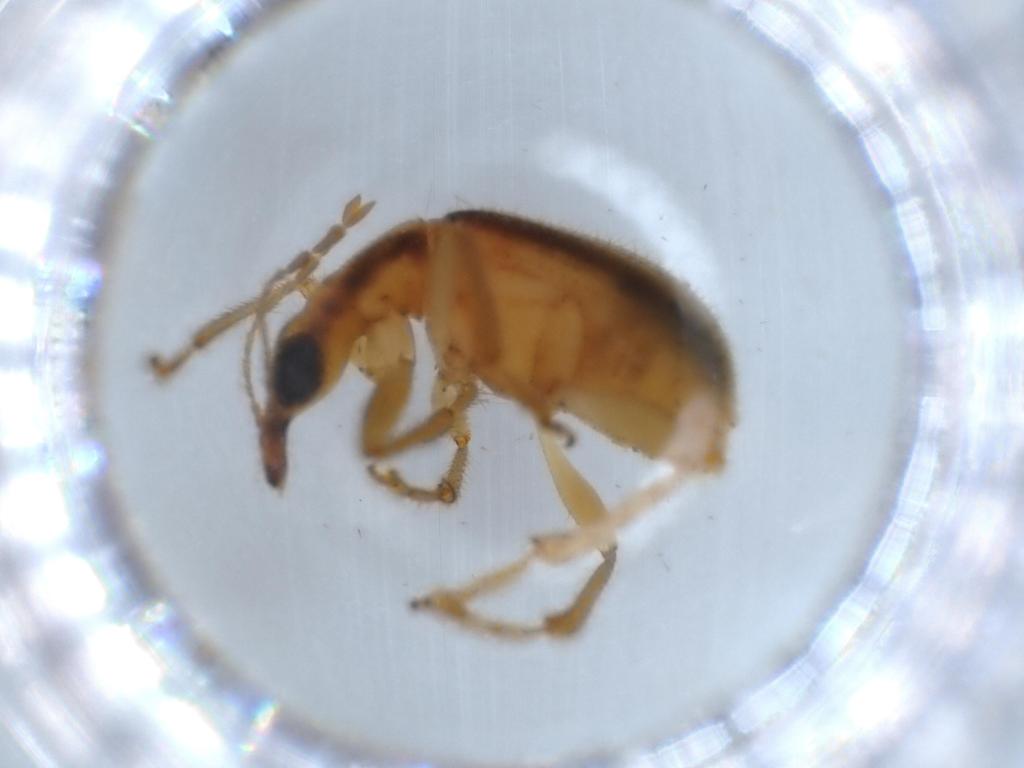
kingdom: Animalia
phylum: Arthropoda
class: Insecta
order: Coleoptera
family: Attelabidae
